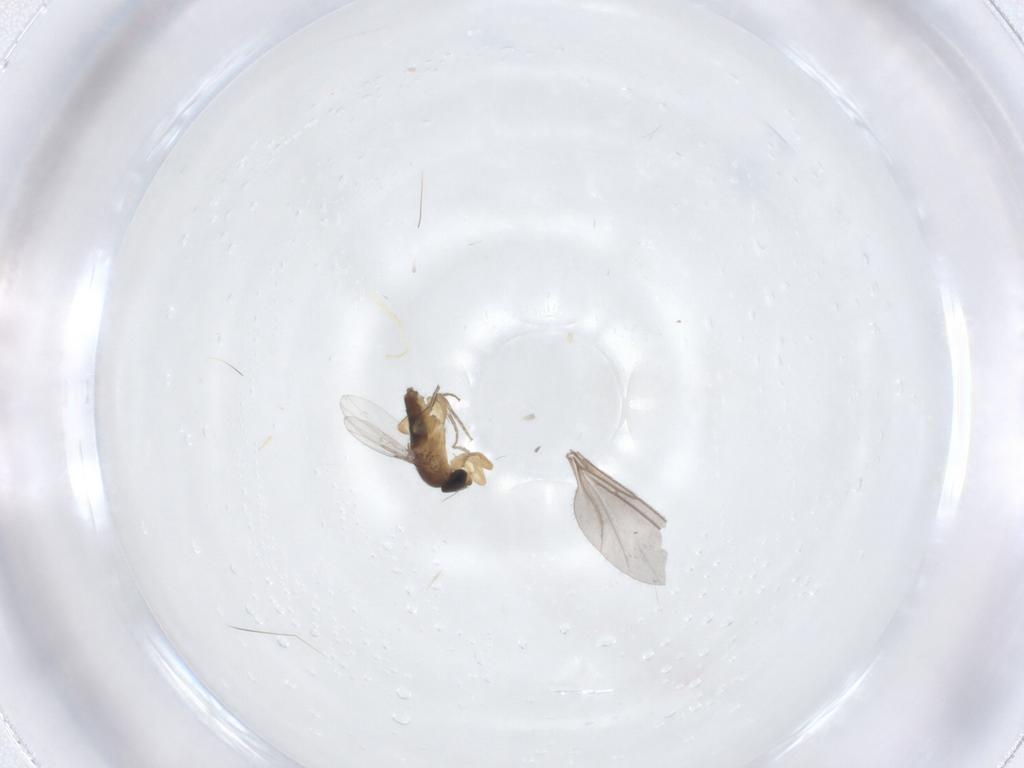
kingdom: Animalia
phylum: Arthropoda
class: Insecta
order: Diptera
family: Phoridae
